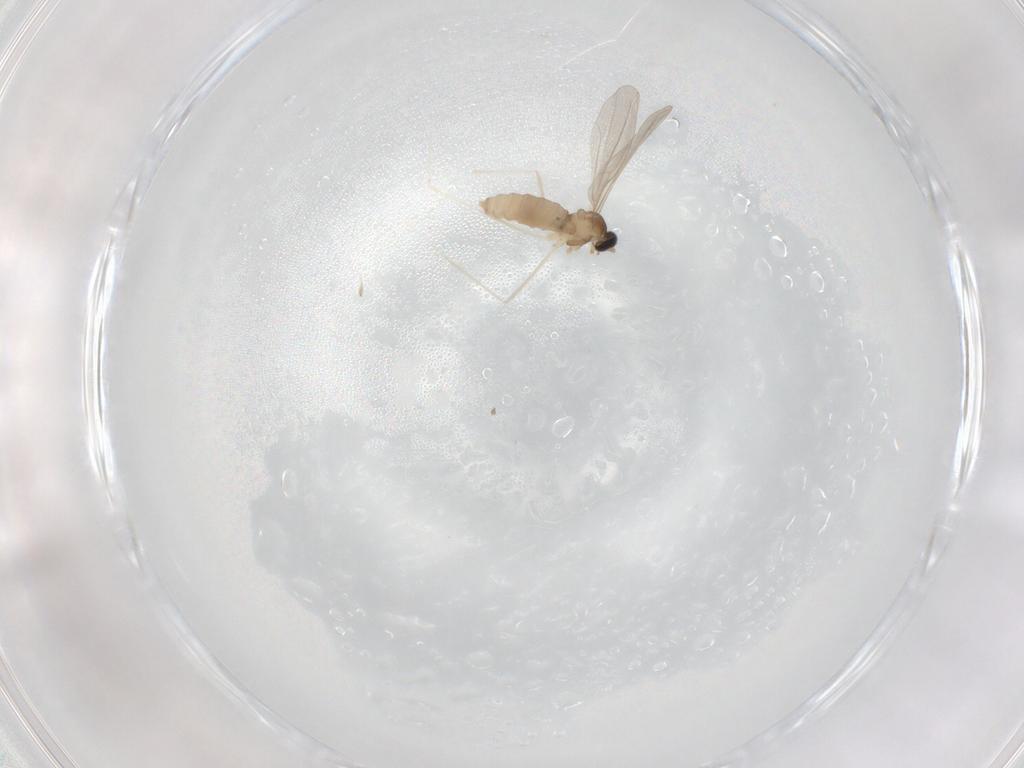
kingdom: Animalia
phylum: Arthropoda
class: Insecta
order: Diptera
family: Cecidomyiidae
